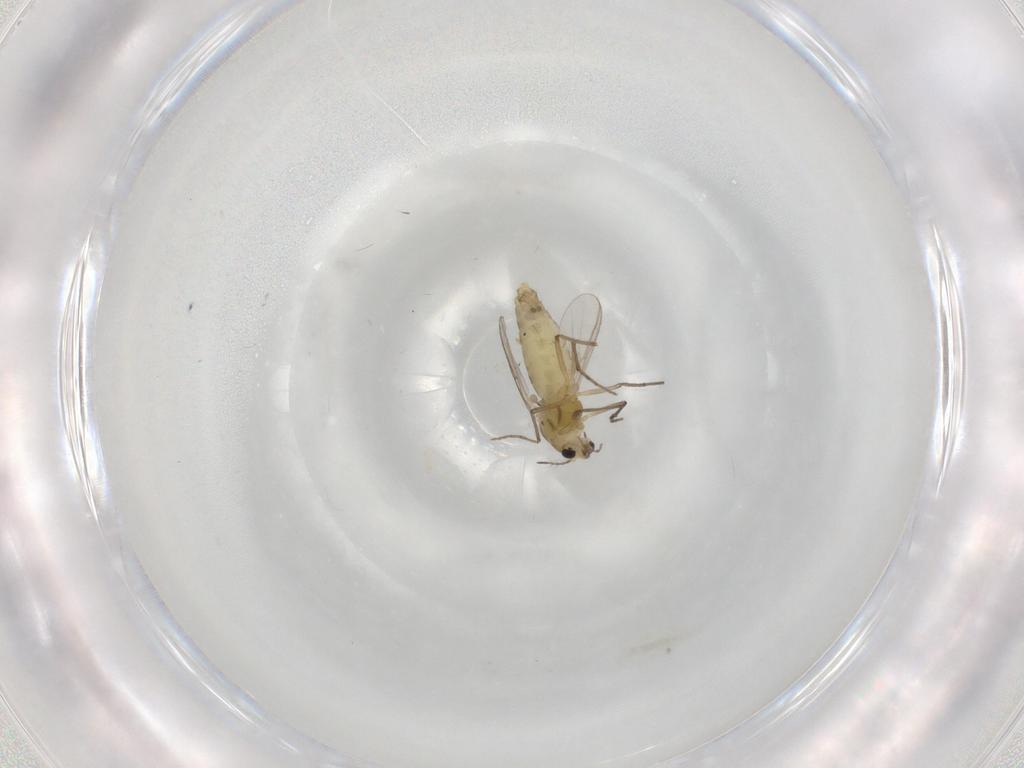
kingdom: Animalia
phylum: Arthropoda
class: Insecta
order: Diptera
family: Chironomidae
